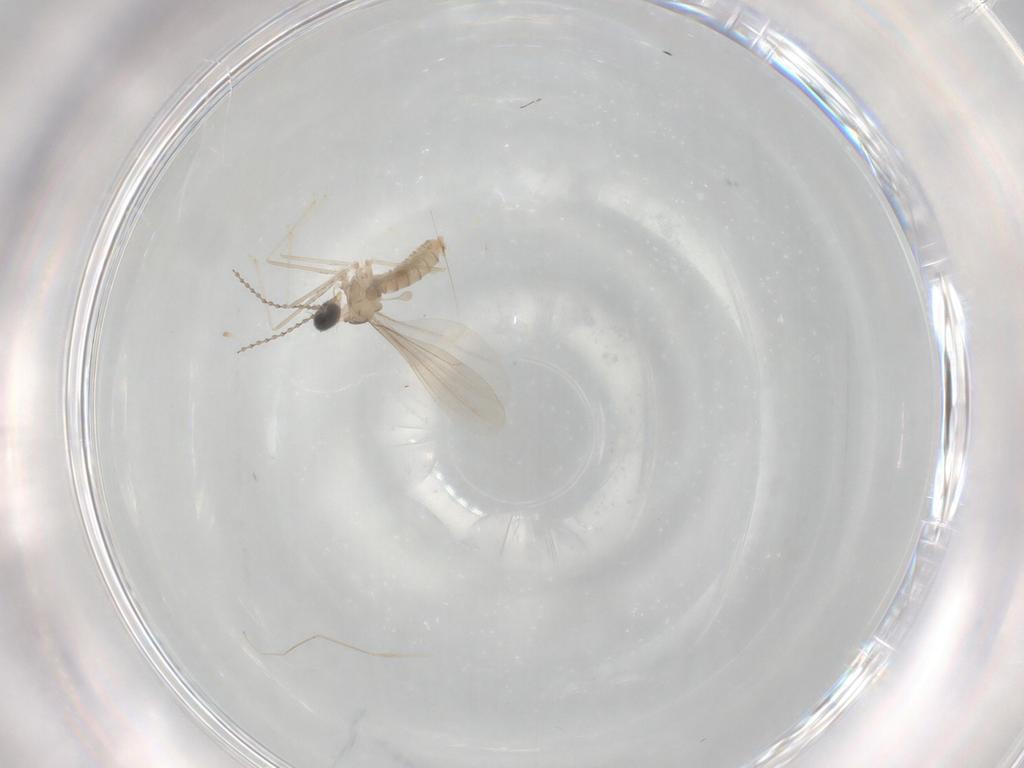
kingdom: Animalia
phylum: Arthropoda
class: Insecta
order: Diptera
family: Cecidomyiidae
